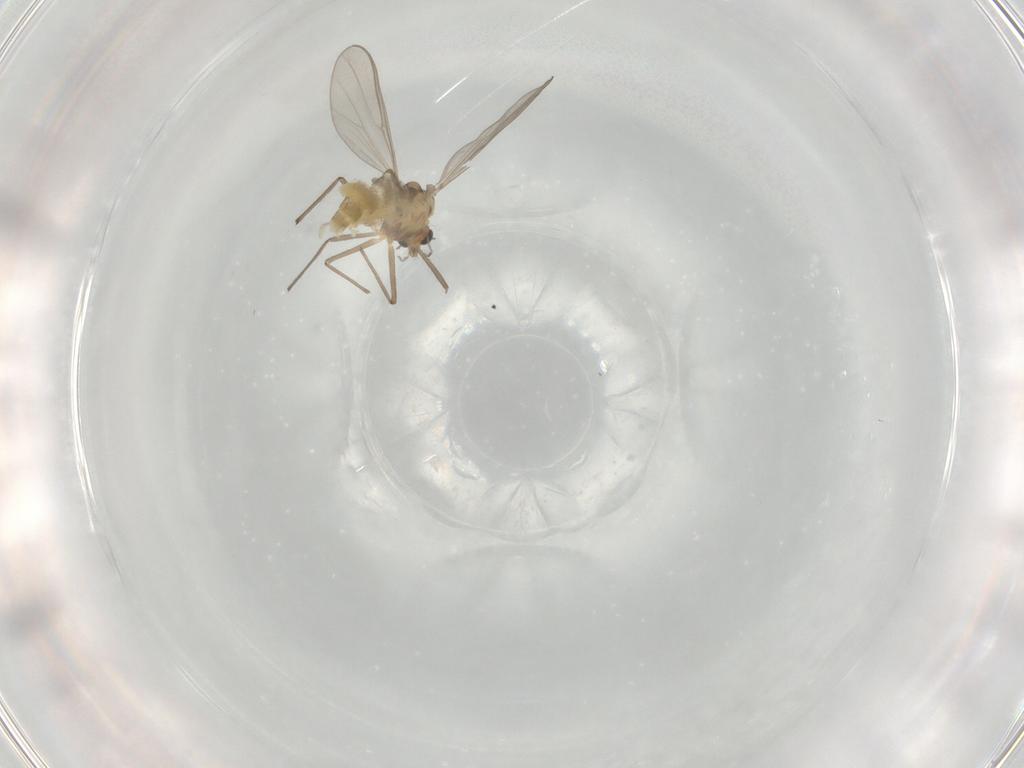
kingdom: Animalia
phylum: Arthropoda
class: Insecta
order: Diptera
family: Chironomidae
